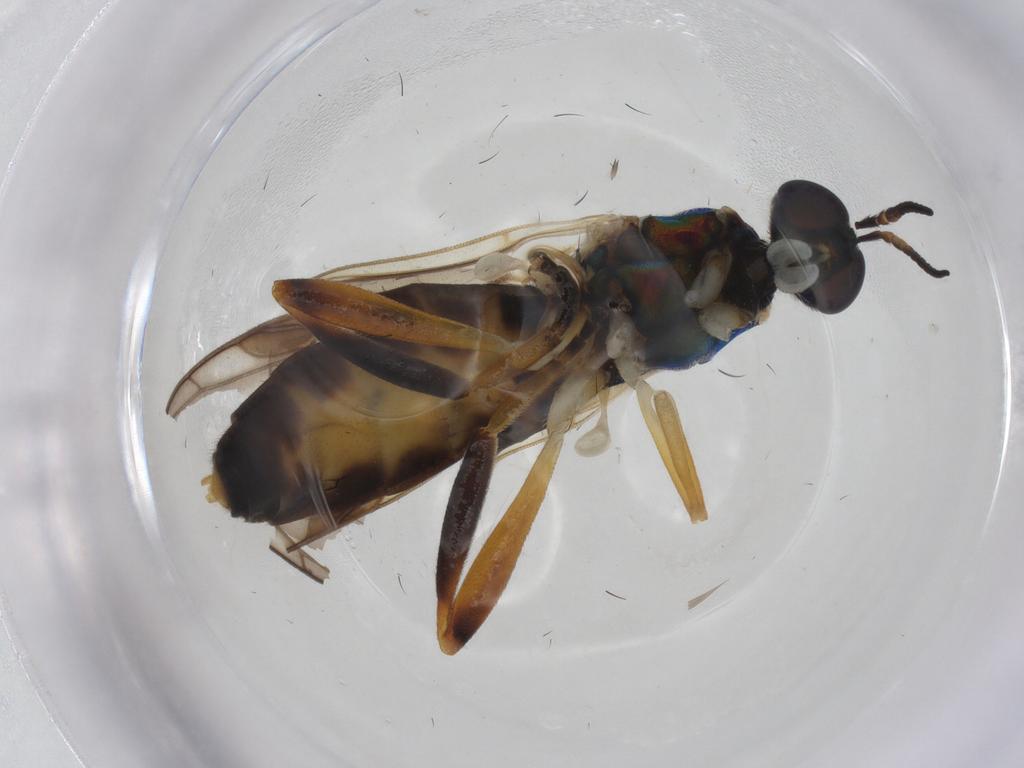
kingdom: Animalia
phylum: Arthropoda
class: Insecta
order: Diptera
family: Stratiomyidae
